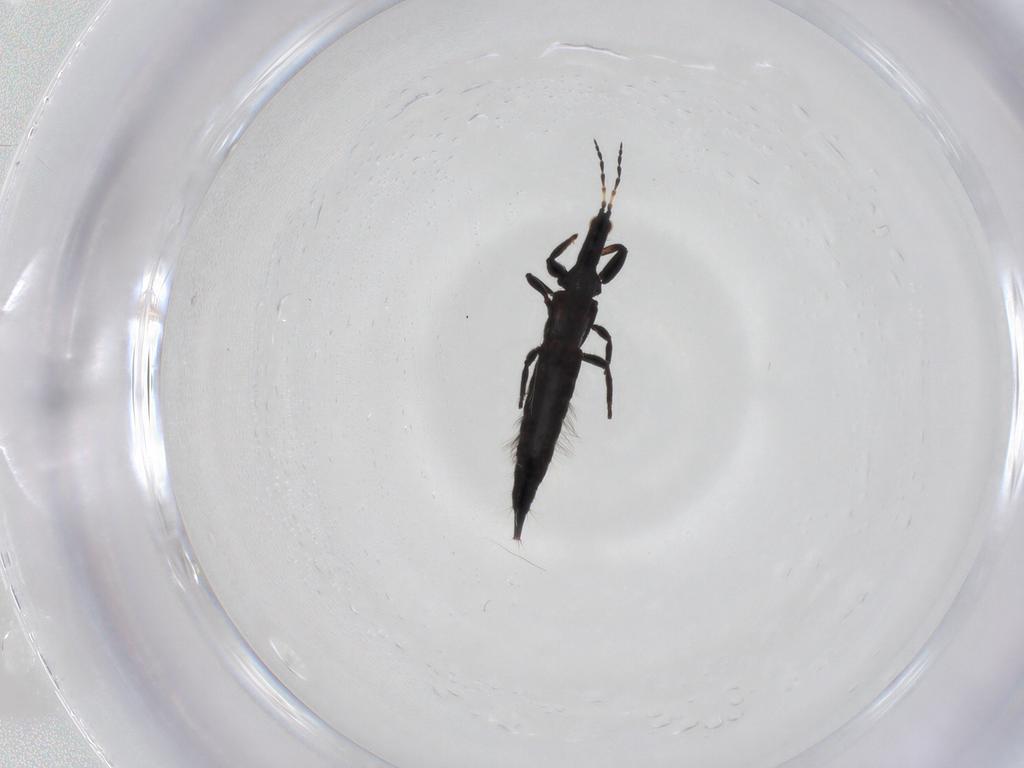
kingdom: Animalia
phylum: Arthropoda
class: Insecta
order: Thysanoptera
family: Phlaeothripidae
